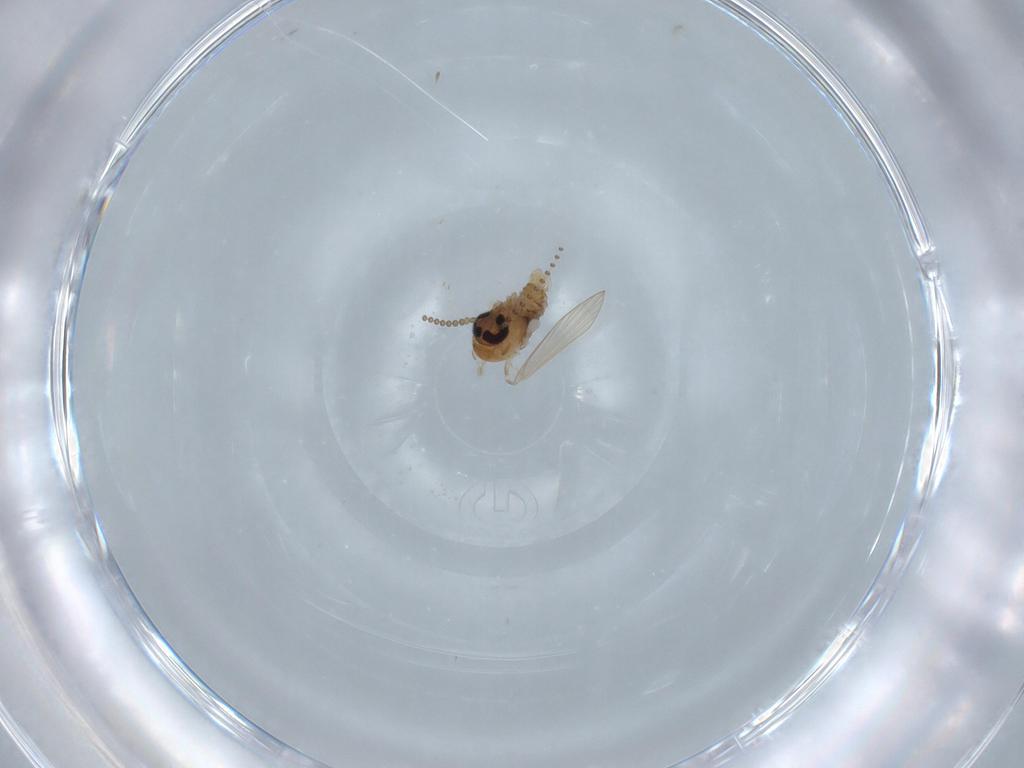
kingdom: Animalia
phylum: Arthropoda
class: Insecta
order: Diptera
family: Psychodidae
